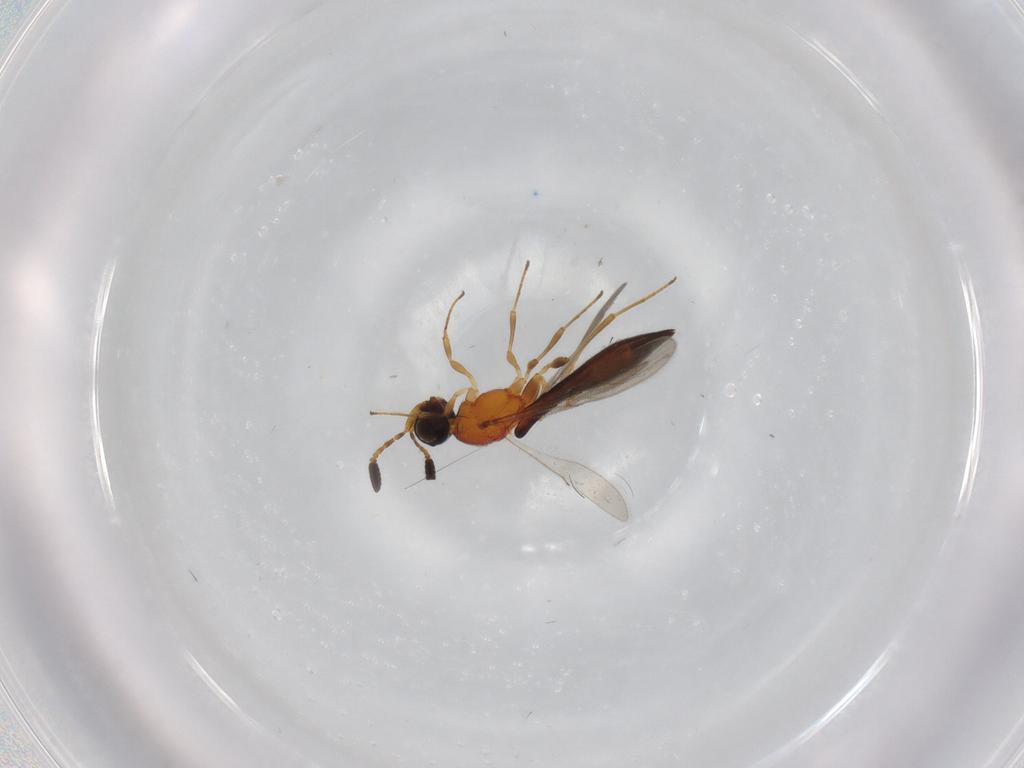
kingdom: Animalia
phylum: Arthropoda
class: Insecta
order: Hymenoptera
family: Scelionidae
